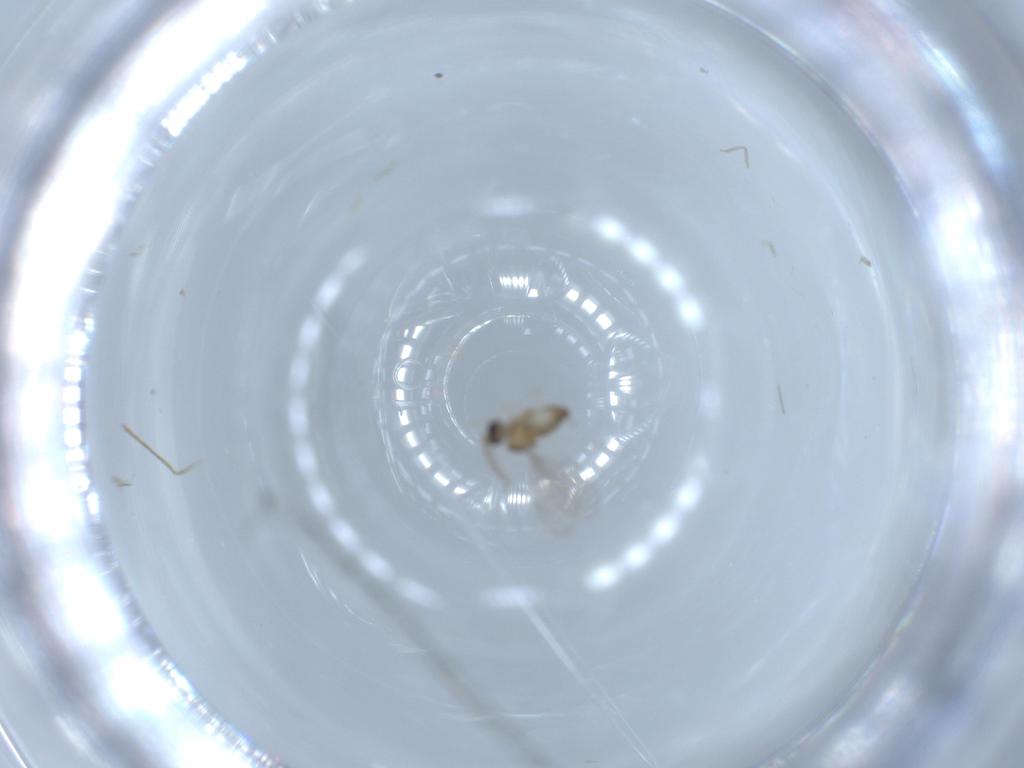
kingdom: Animalia
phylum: Arthropoda
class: Insecta
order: Diptera
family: Cecidomyiidae
